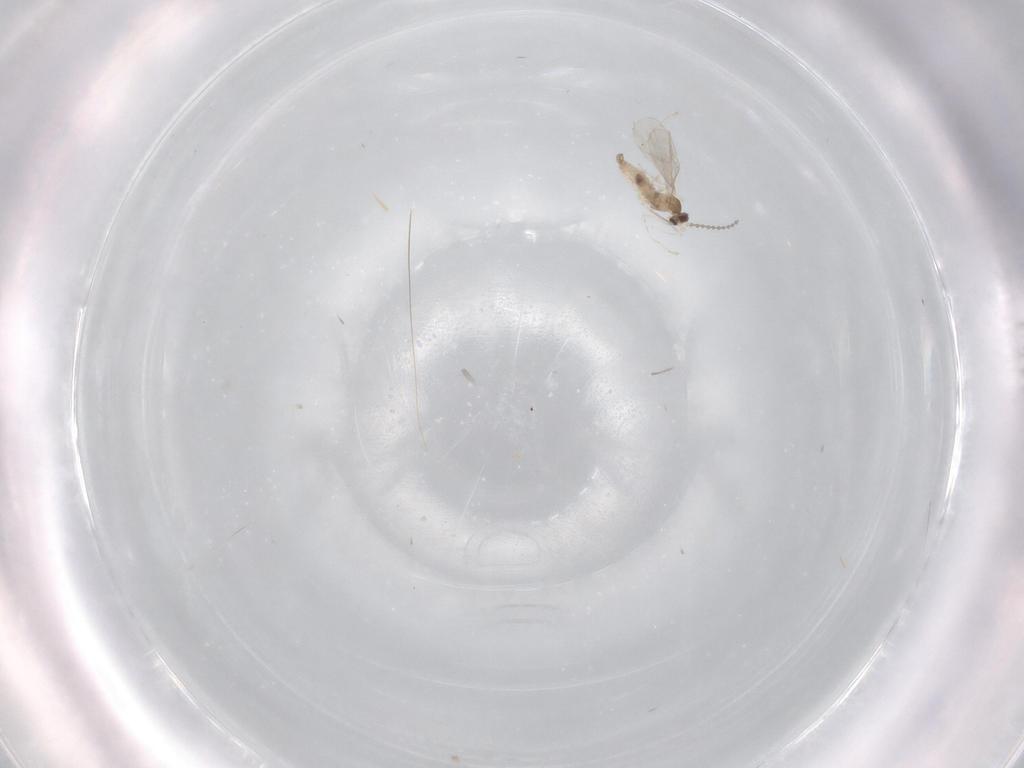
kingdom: Animalia
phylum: Arthropoda
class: Insecta
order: Diptera
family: Cecidomyiidae
